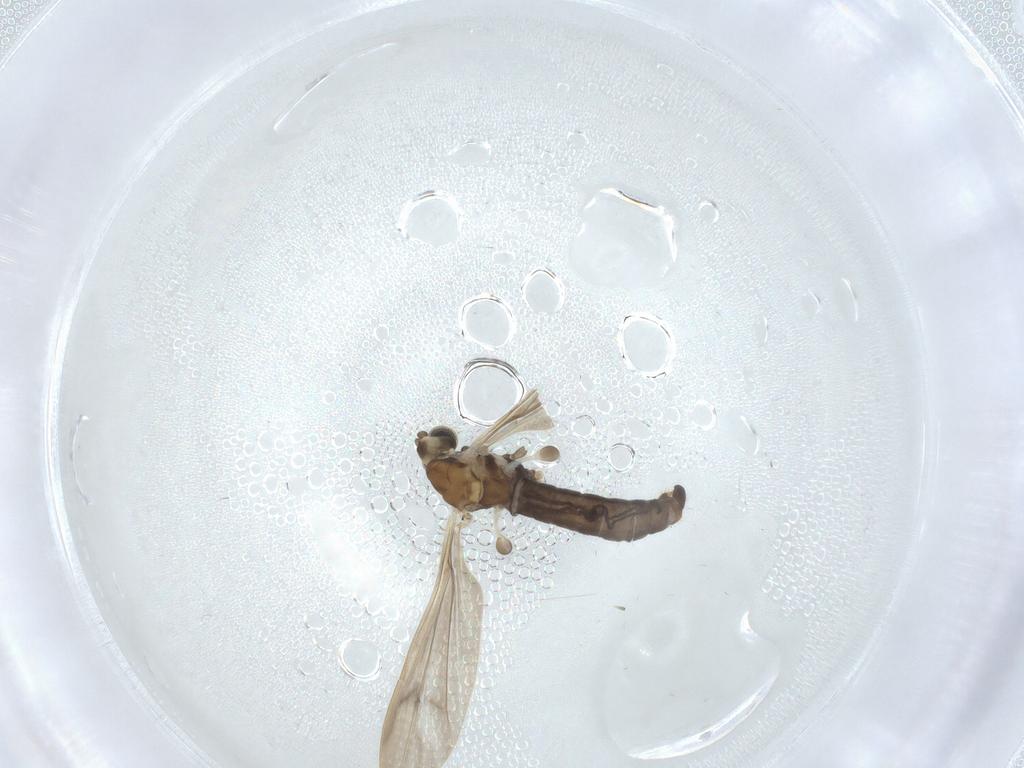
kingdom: Animalia
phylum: Arthropoda
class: Insecta
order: Diptera
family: Limoniidae
